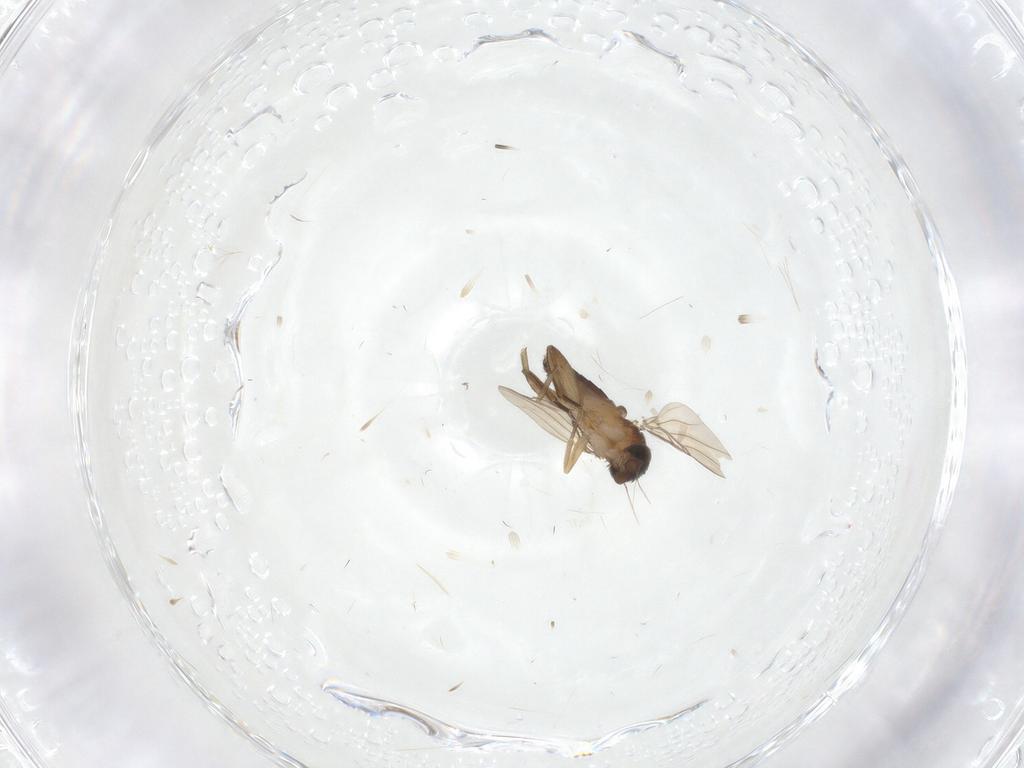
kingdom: Animalia
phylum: Arthropoda
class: Insecta
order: Diptera
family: Phoridae
